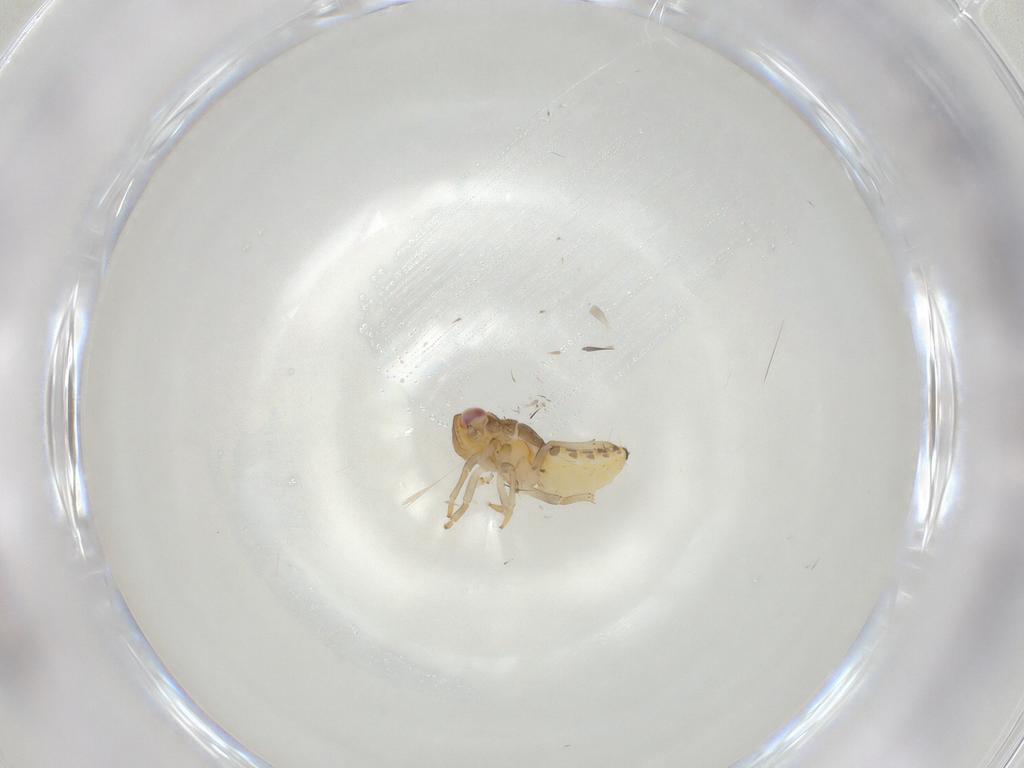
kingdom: Animalia
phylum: Arthropoda
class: Insecta
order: Hemiptera
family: Issidae
